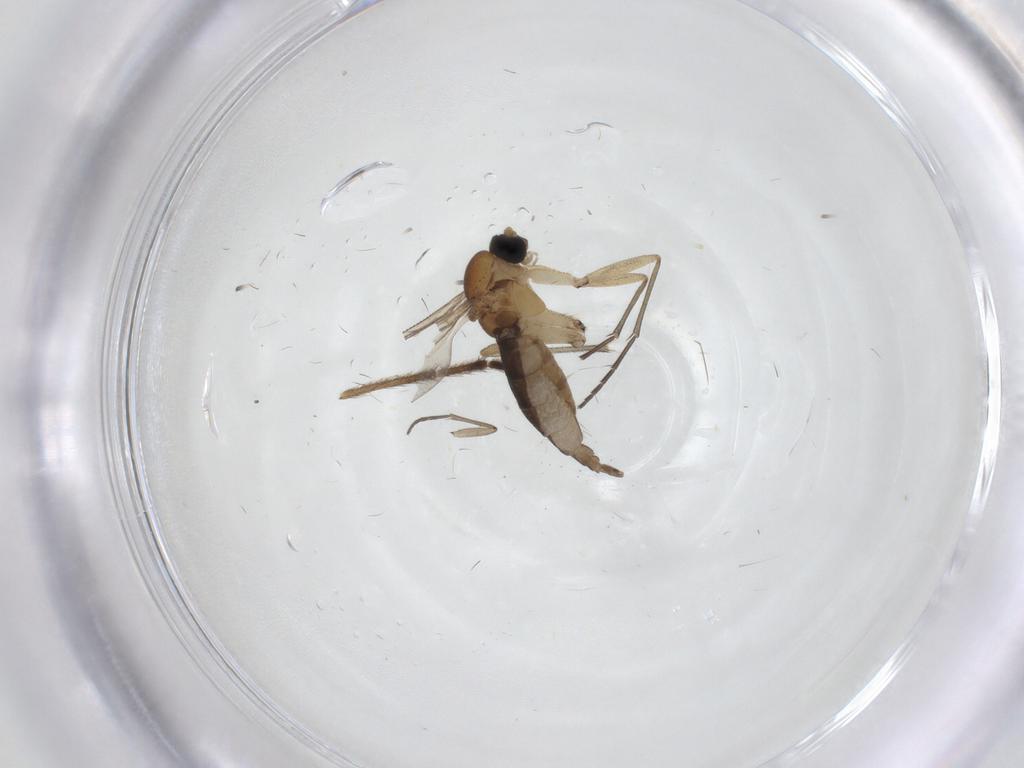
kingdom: Animalia
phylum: Arthropoda
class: Insecta
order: Diptera
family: Sciaridae
